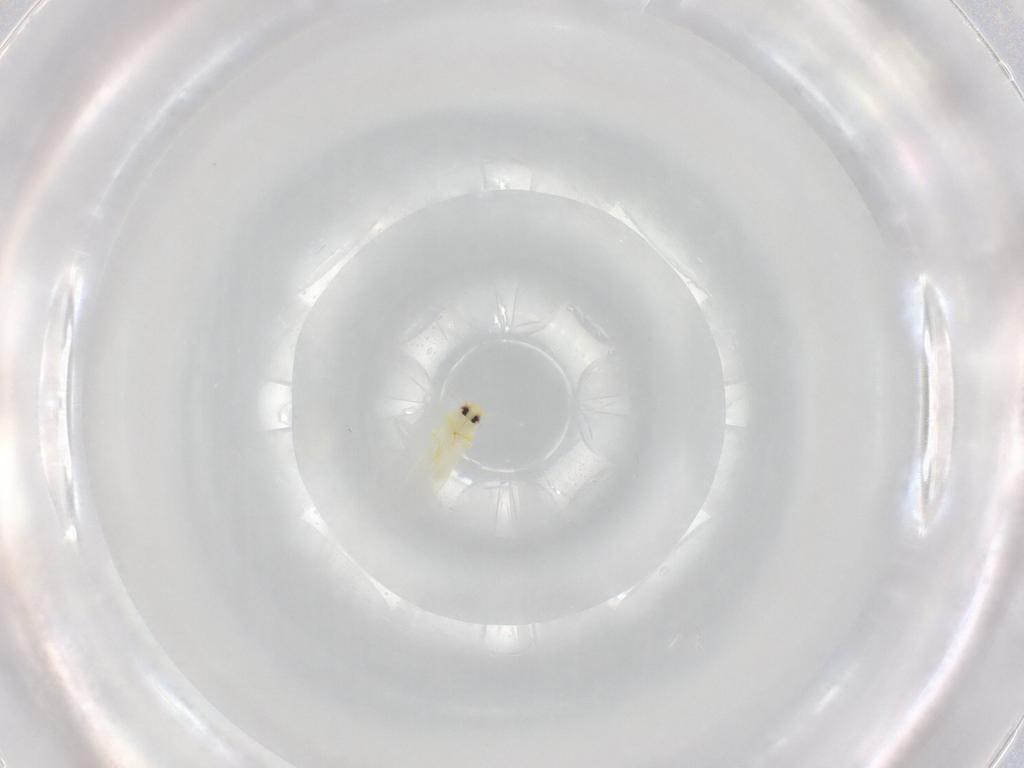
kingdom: Animalia
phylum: Arthropoda
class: Insecta
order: Hemiptera
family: Aleyrodidae
